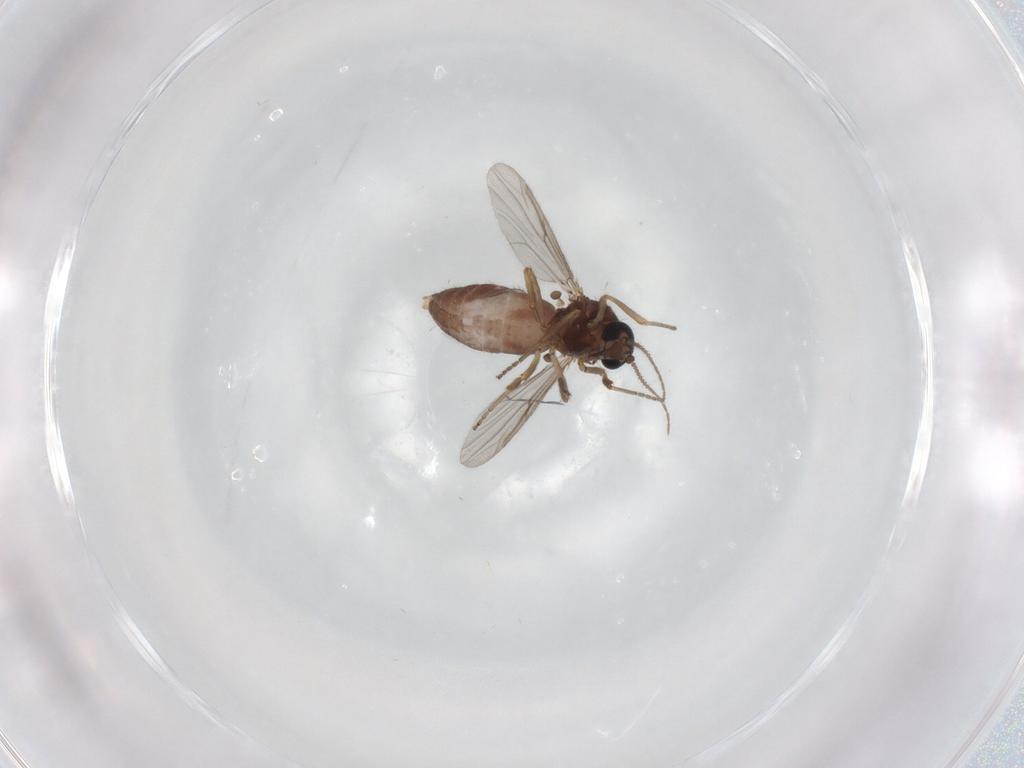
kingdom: Animalia
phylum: Arthropoda
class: Insecta
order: Diptera
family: Ceratopogonidae
